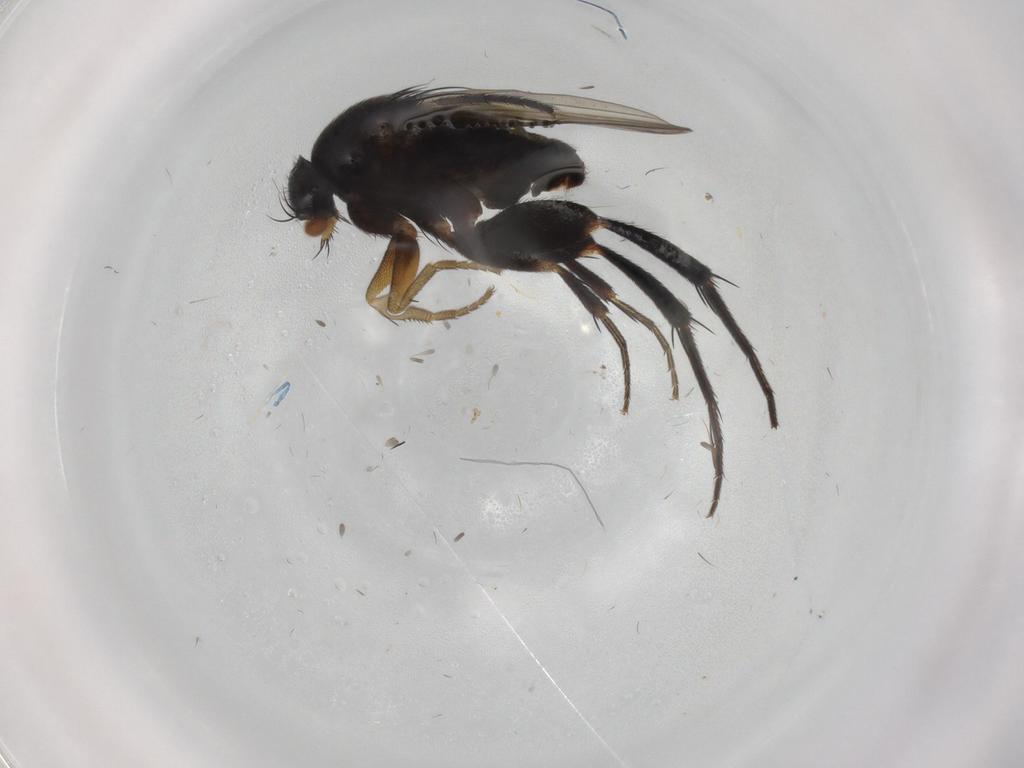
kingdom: Animalia
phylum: Arthropoda
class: Insecta
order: Diptera
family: Phoridae
